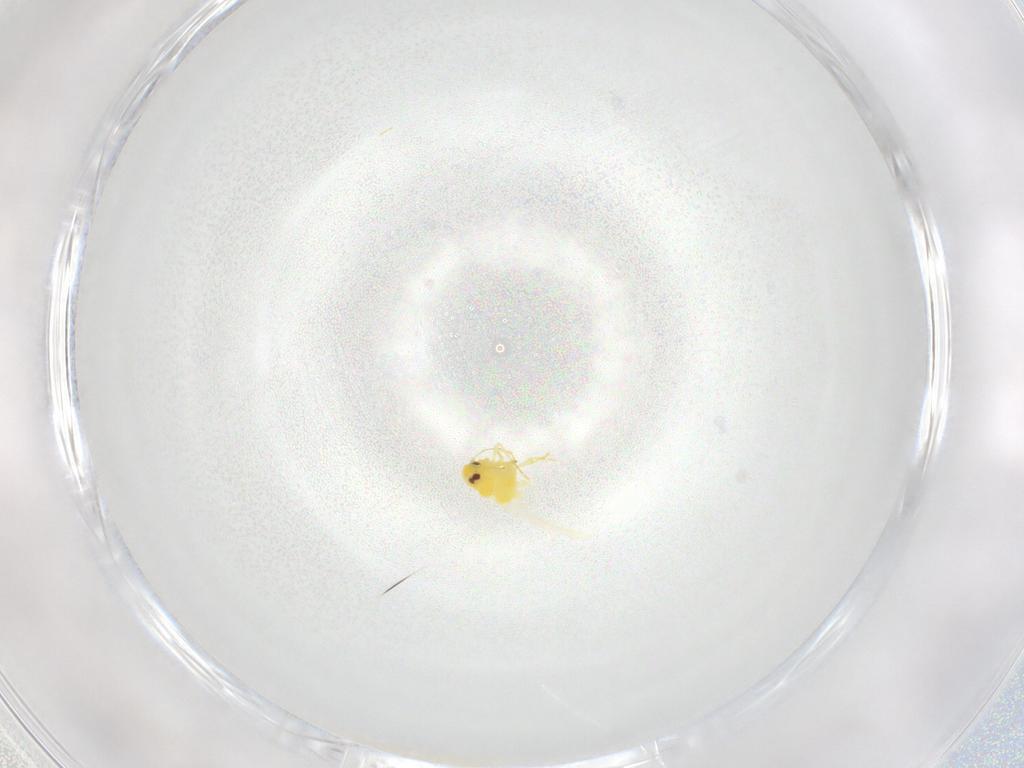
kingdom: Animalia
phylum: Arthropoda
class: Insecta
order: Hemiptera
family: Aleyrodidae
